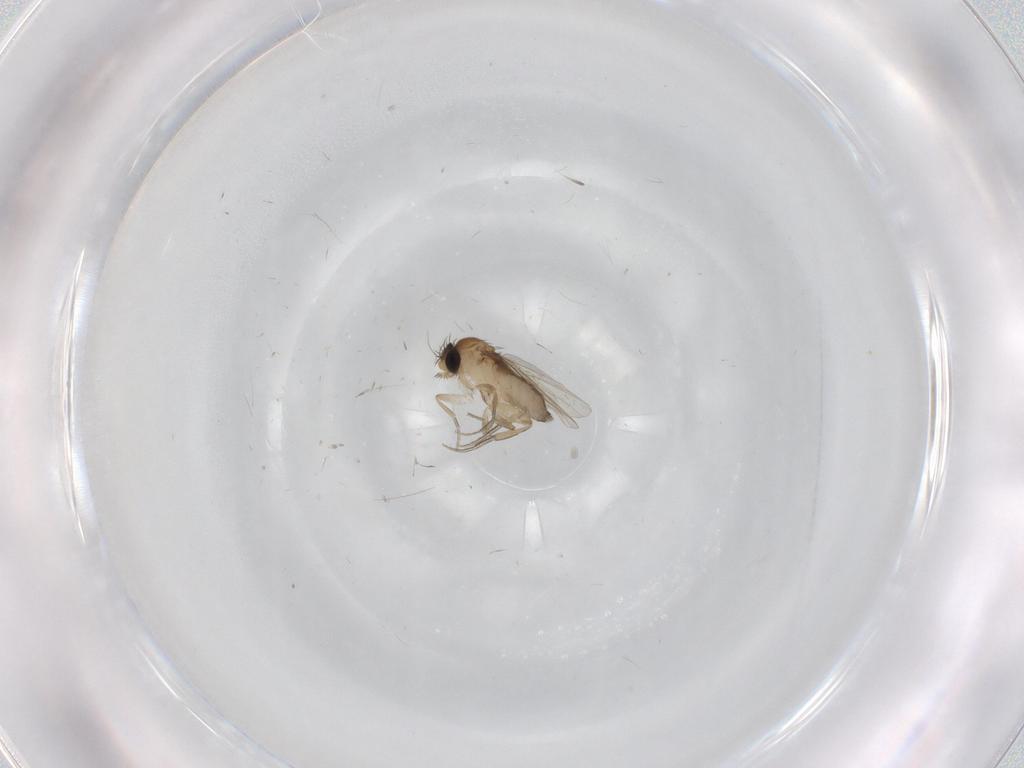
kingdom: Animalia
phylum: Arthropoda
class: Insecta
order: Diptera
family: Phoridae
